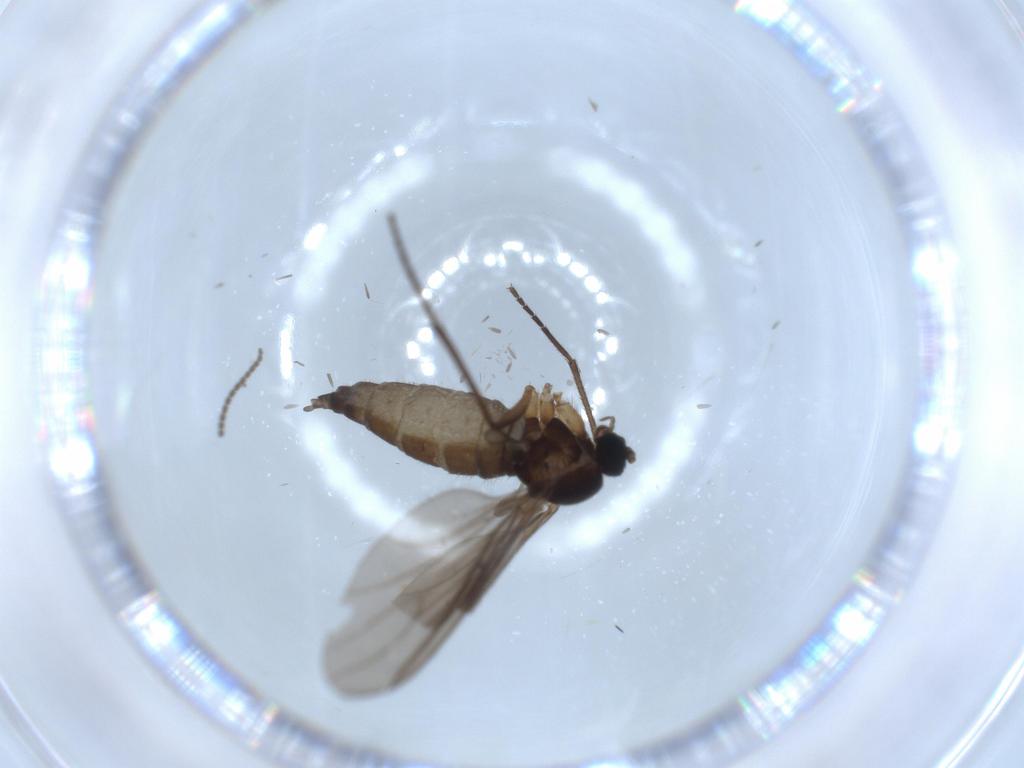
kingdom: Animalia
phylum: Arthropoda
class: Insecta
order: Diptera
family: Sciaridae
